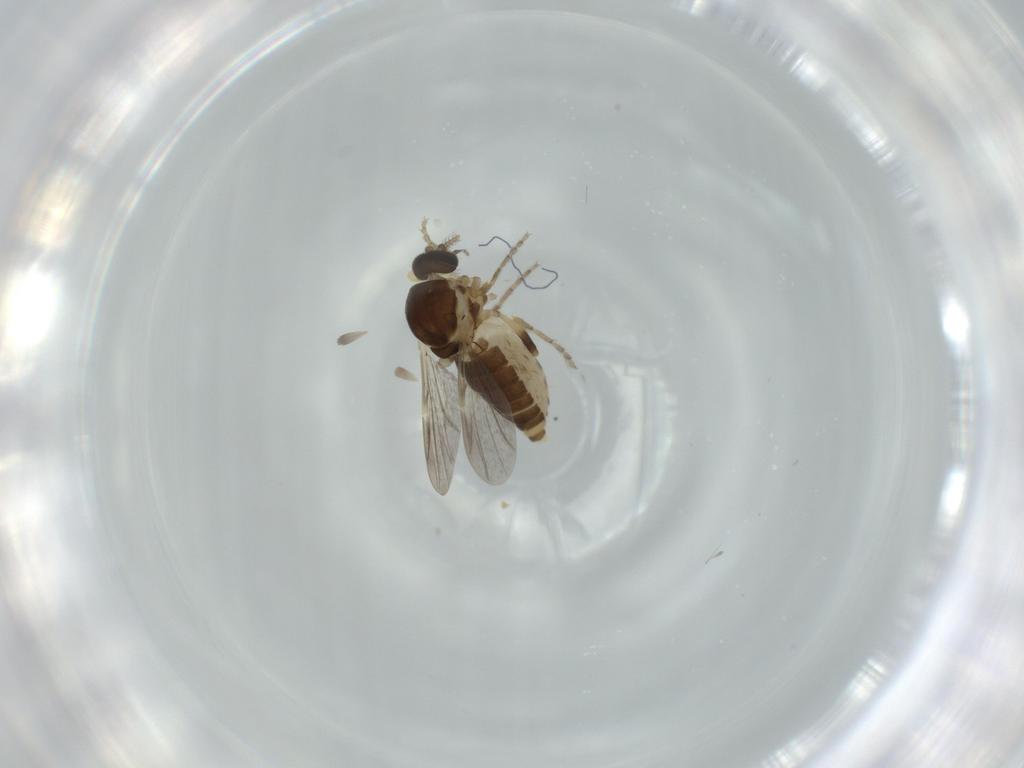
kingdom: Animalia
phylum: Arthropoda
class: Insecta
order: Diptera
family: Ceratopogonidae
